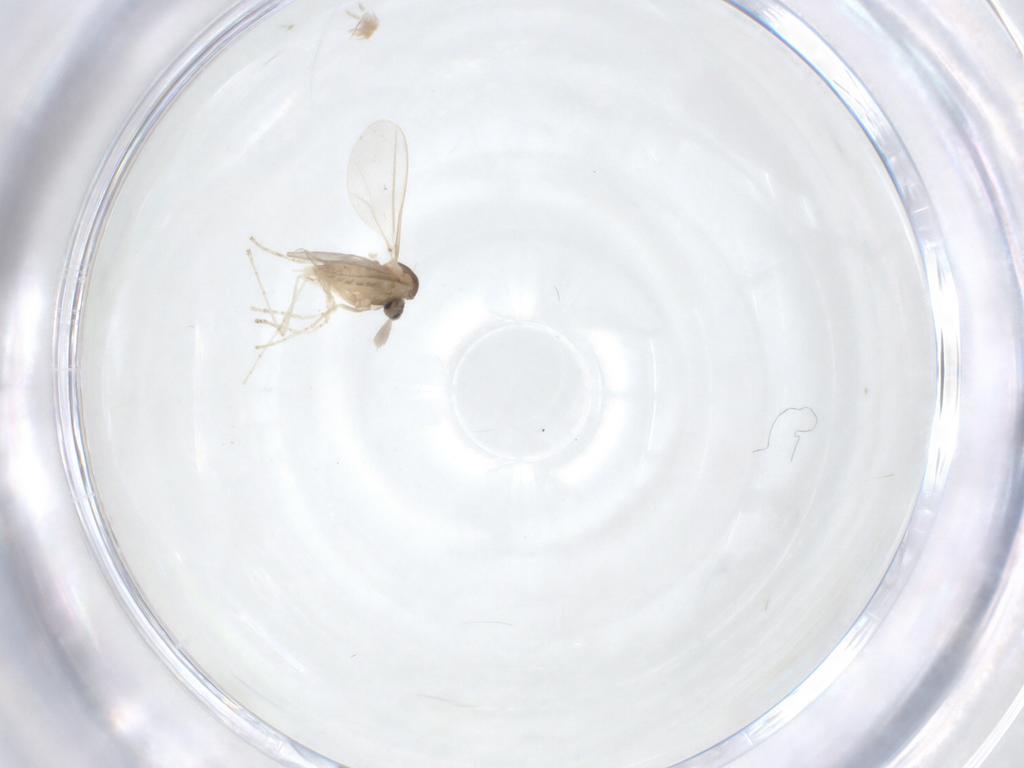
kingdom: Animalia
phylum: Arthropoda
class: Insecta
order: Diptera
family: Cecidomyiidae
